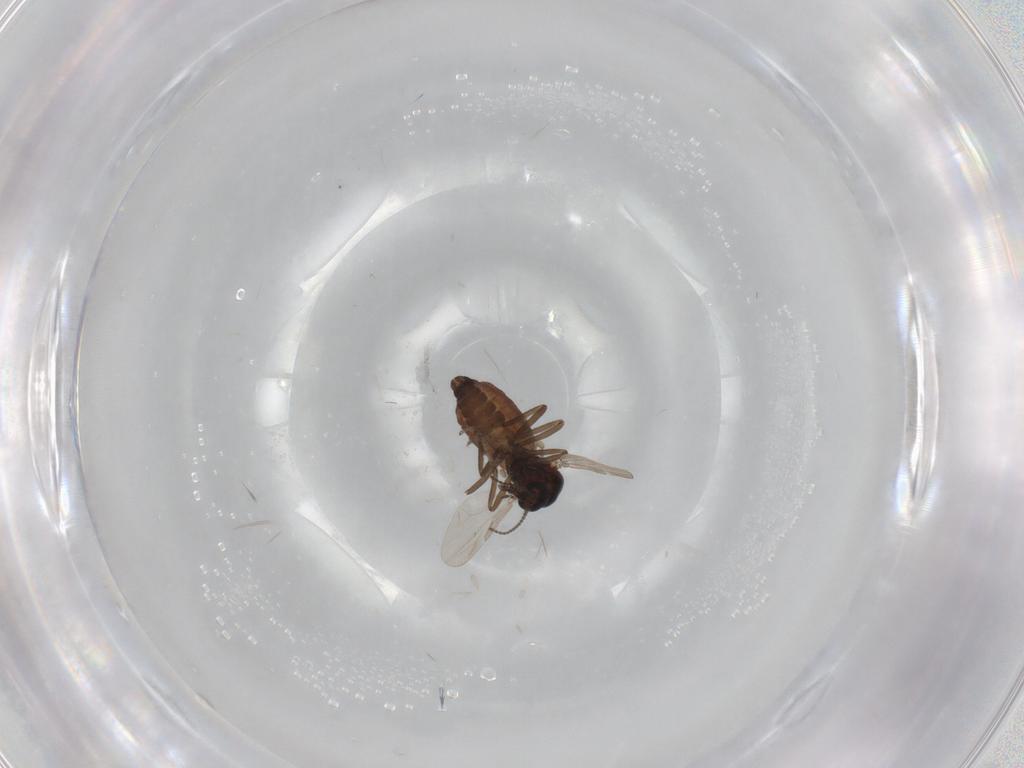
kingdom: Animalia
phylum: Arthropoda
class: Insecta
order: Diptera
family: Ceratopogonidae
